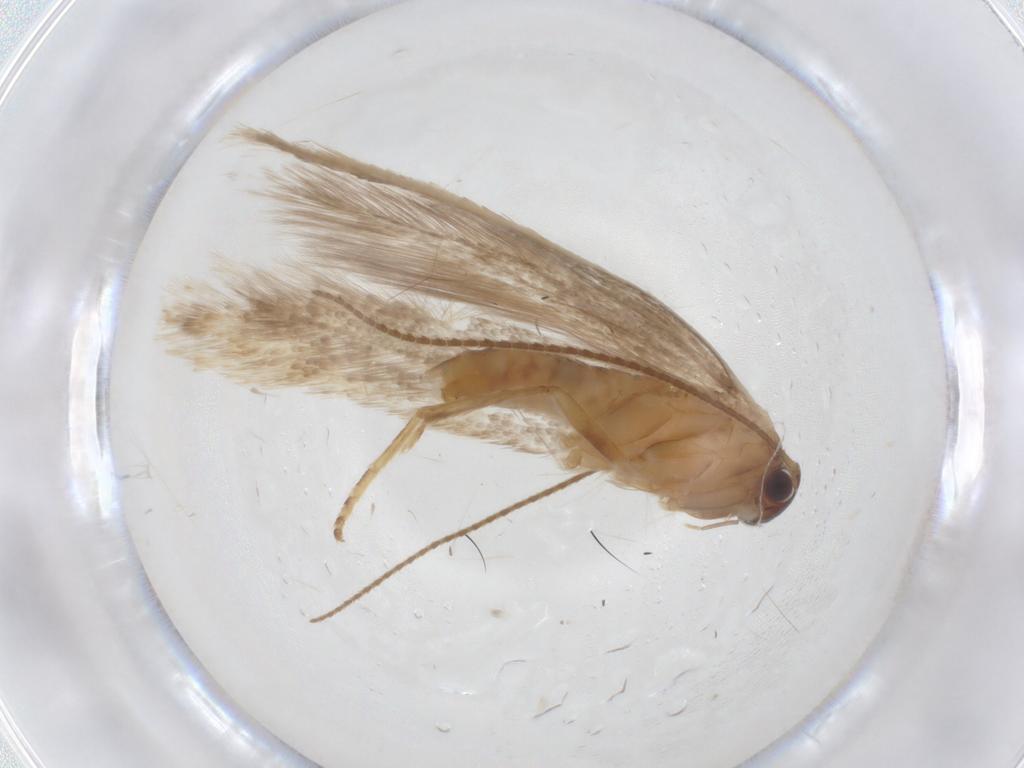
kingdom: Animalia
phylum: Arthropoda
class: Insecta
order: Lepidoptera
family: Pterolonchidae
